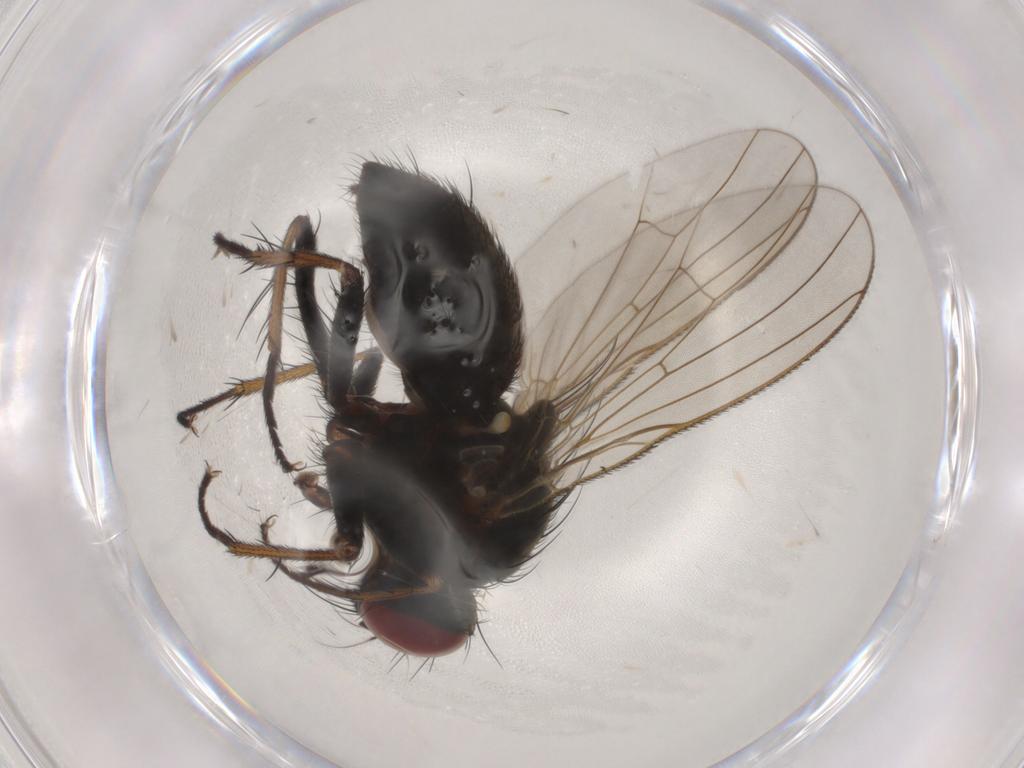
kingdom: Animalia
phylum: Arthropoda
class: Insecta
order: Diptera
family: Muscidae
